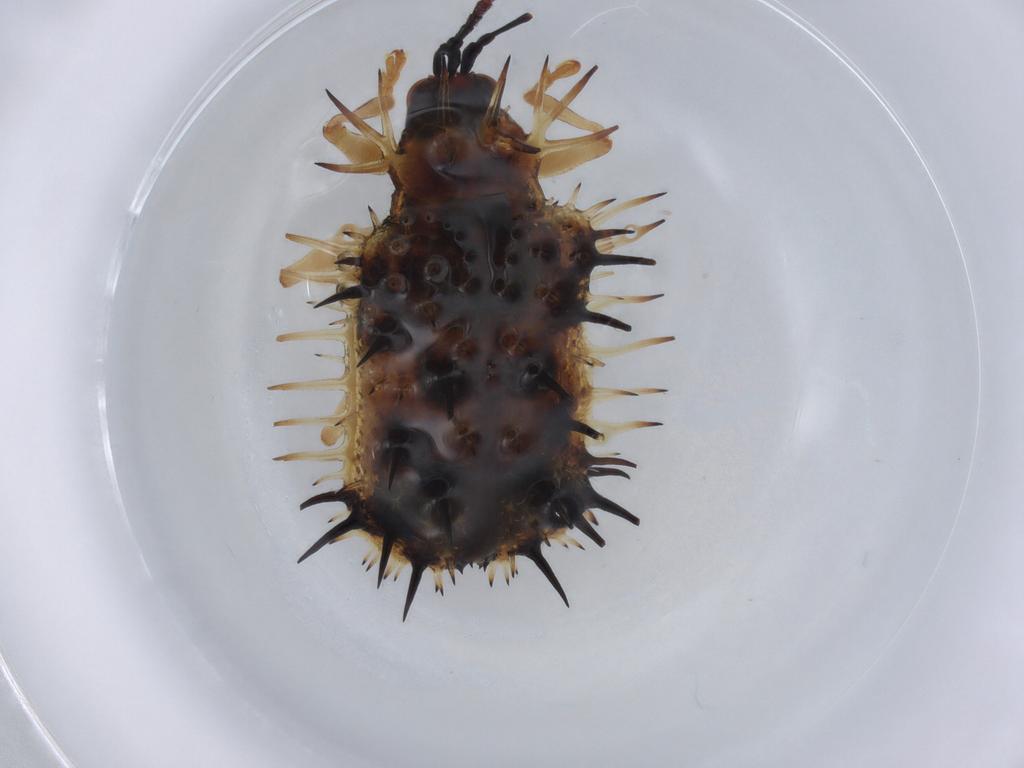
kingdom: Animalia
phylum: Arthropoda
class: Insecta
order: Coleoptera
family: Chrysomelidae
